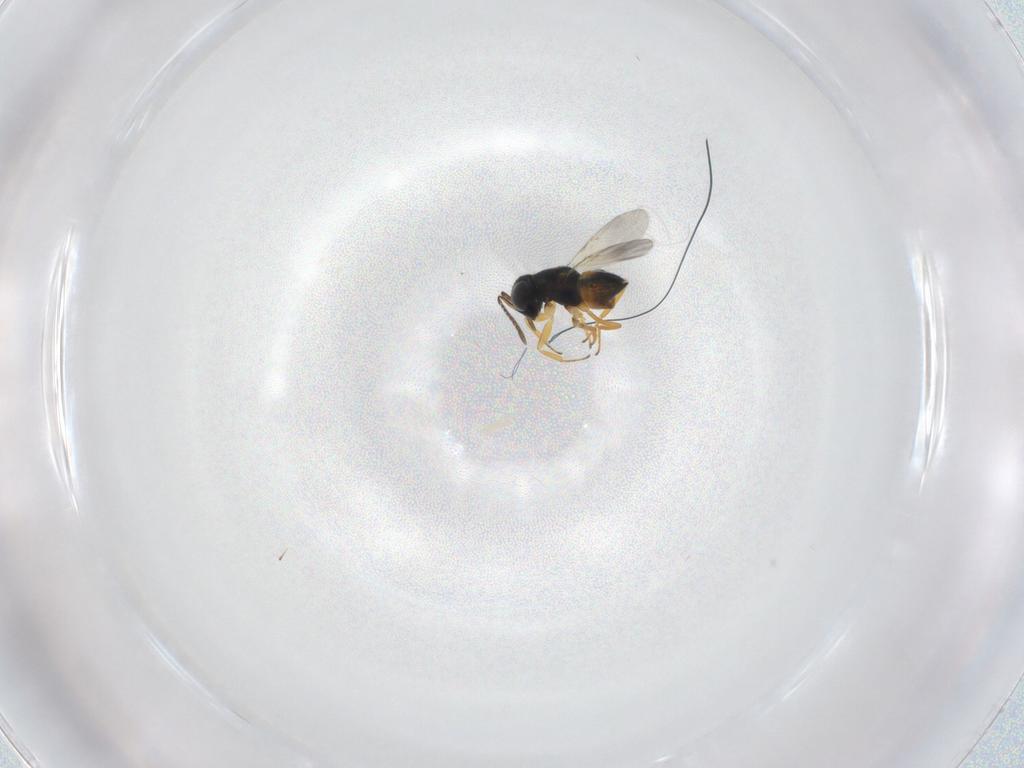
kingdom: Animalia
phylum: Arthropoda
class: Insecta
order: Hymenoptera
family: Encyrtidae
